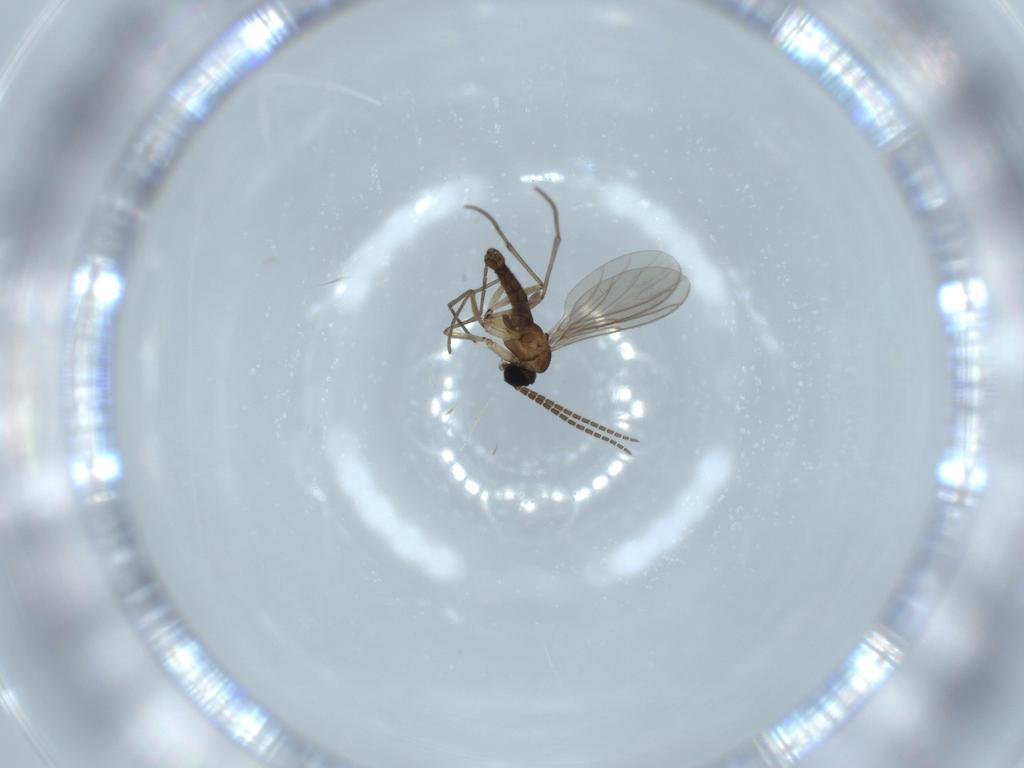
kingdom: Animalia
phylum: Arthropoda
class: Insecta
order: Diptera
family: Sciaridae
